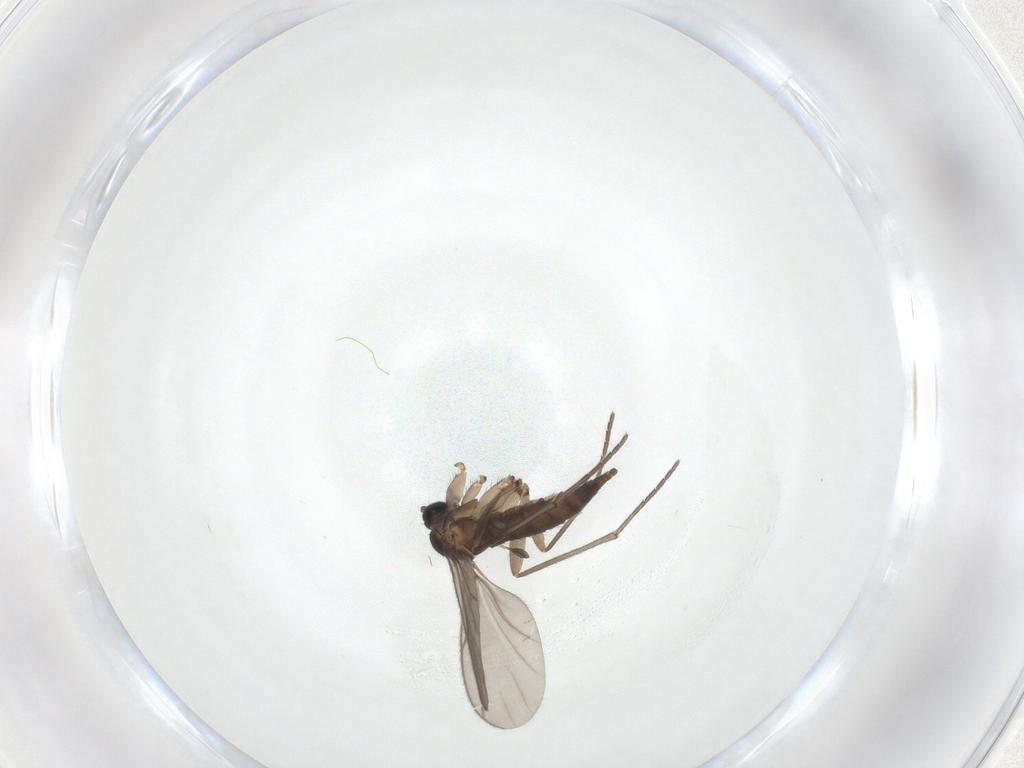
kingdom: Animalia
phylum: Arthropoda
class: Insecta
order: Diptera
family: Sciaridae
